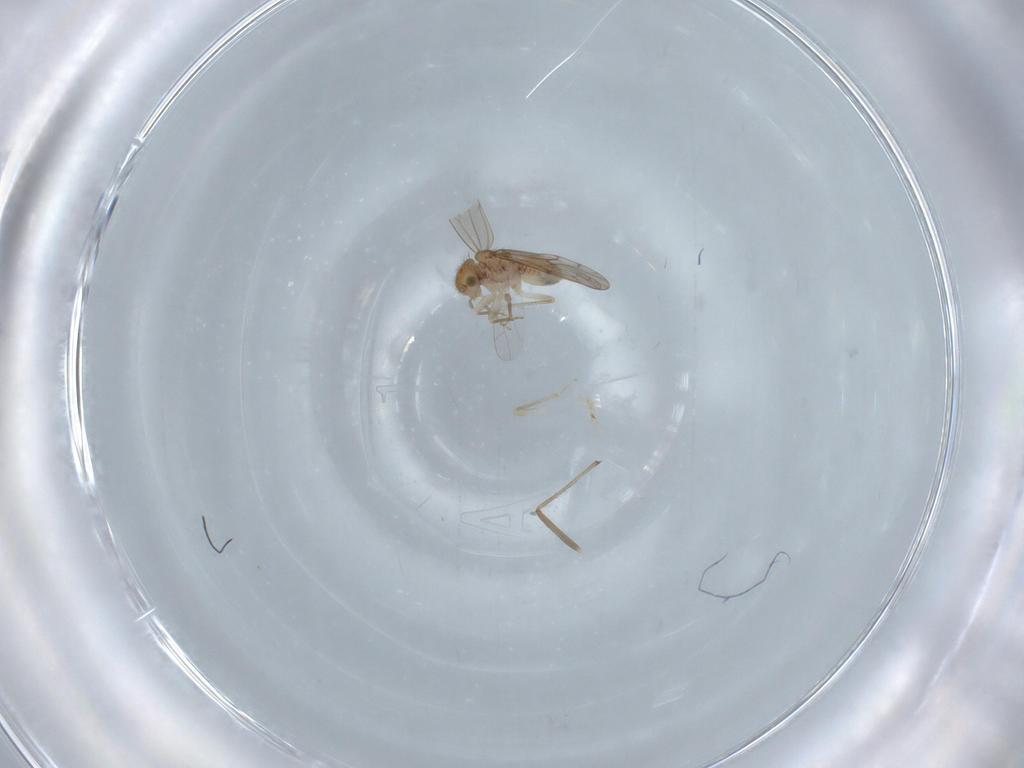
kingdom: Animalia
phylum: Arthropoda
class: Insecta
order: Psocodea
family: Ectopsocidae
